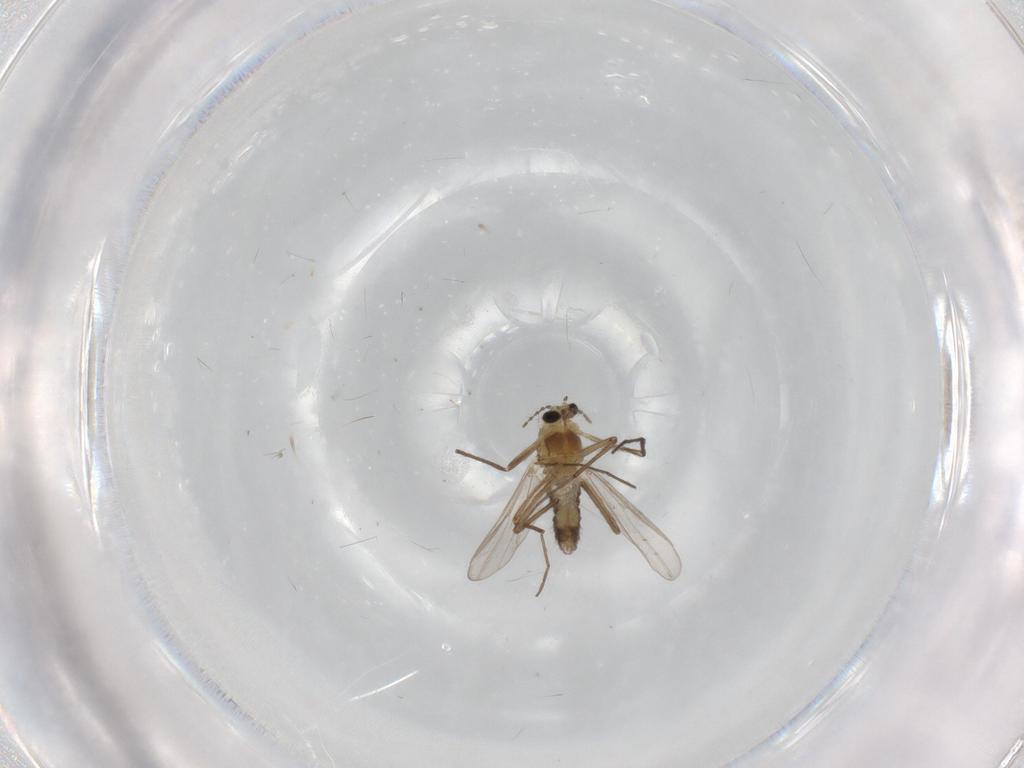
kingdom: Animalia
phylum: Arthropoda
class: Insecta
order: Diptera
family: Chironomidae
